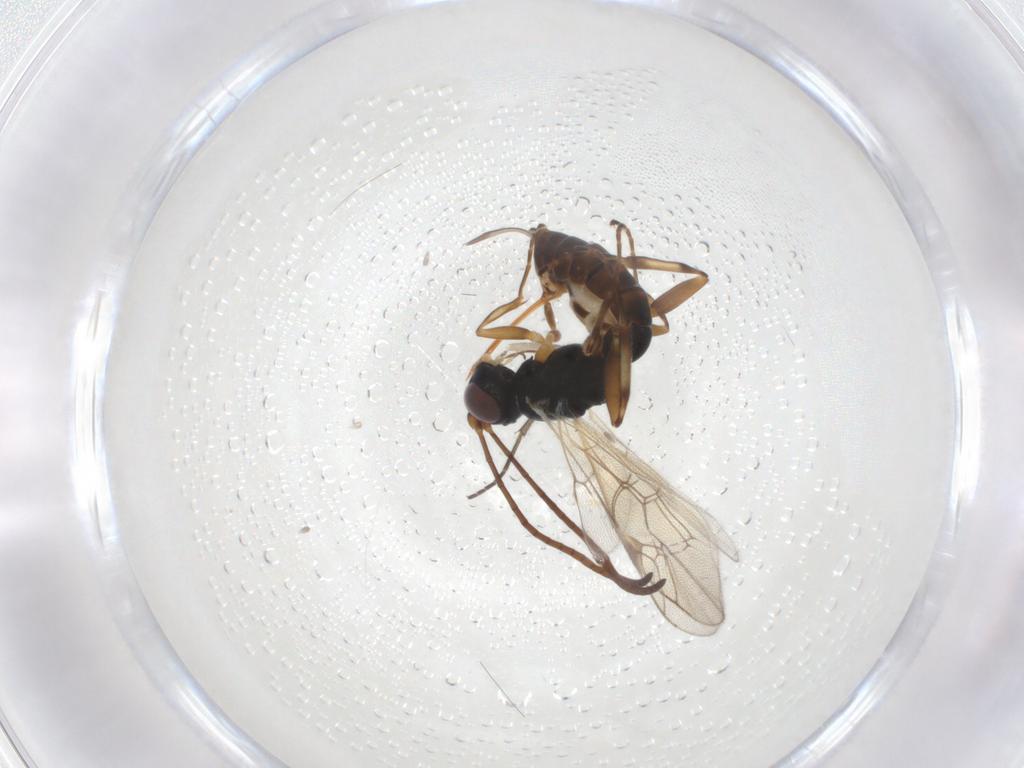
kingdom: Animalia
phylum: Arthropoda
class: Insecta
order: Hymenoptera
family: Ichneumonidae
